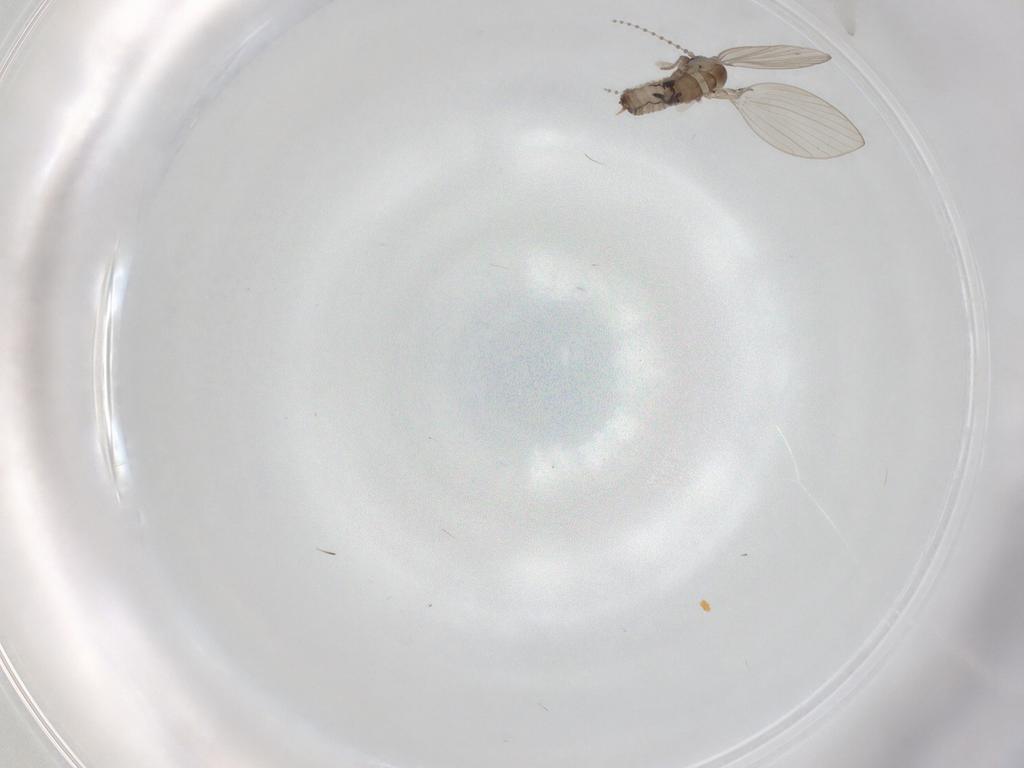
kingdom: Animalia
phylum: Arthropoda
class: Insecta
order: Diptera
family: Psychodidae
